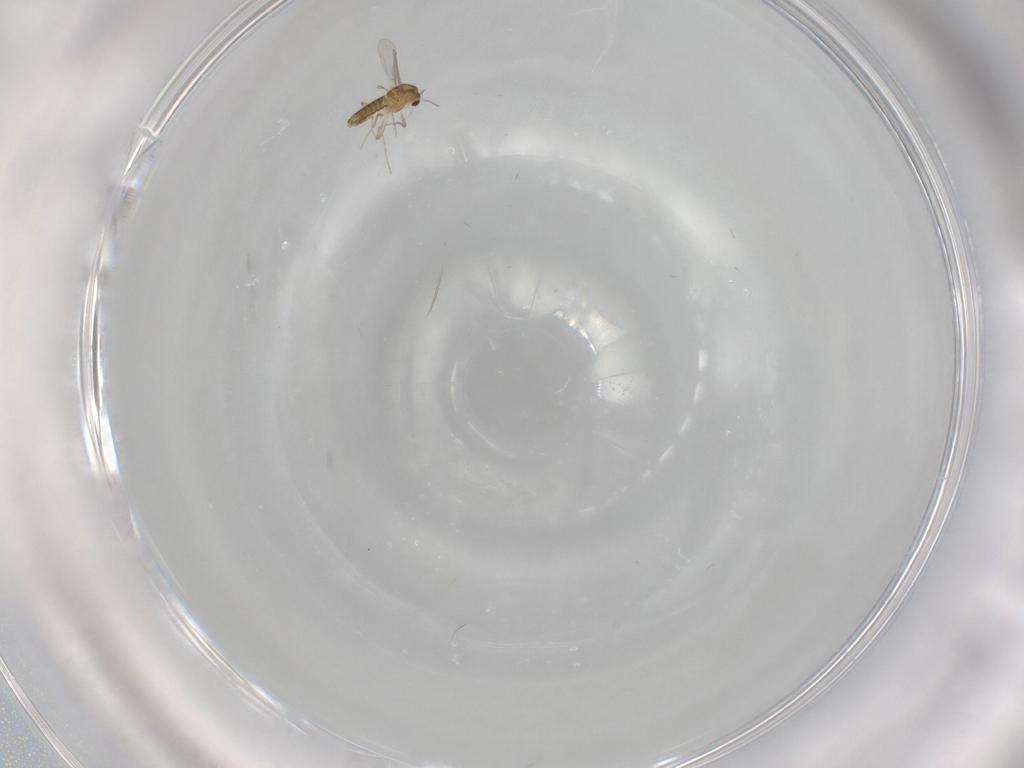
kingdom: Animalia
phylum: Arthropoda
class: Insecta
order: Diptera
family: Chironomidae
